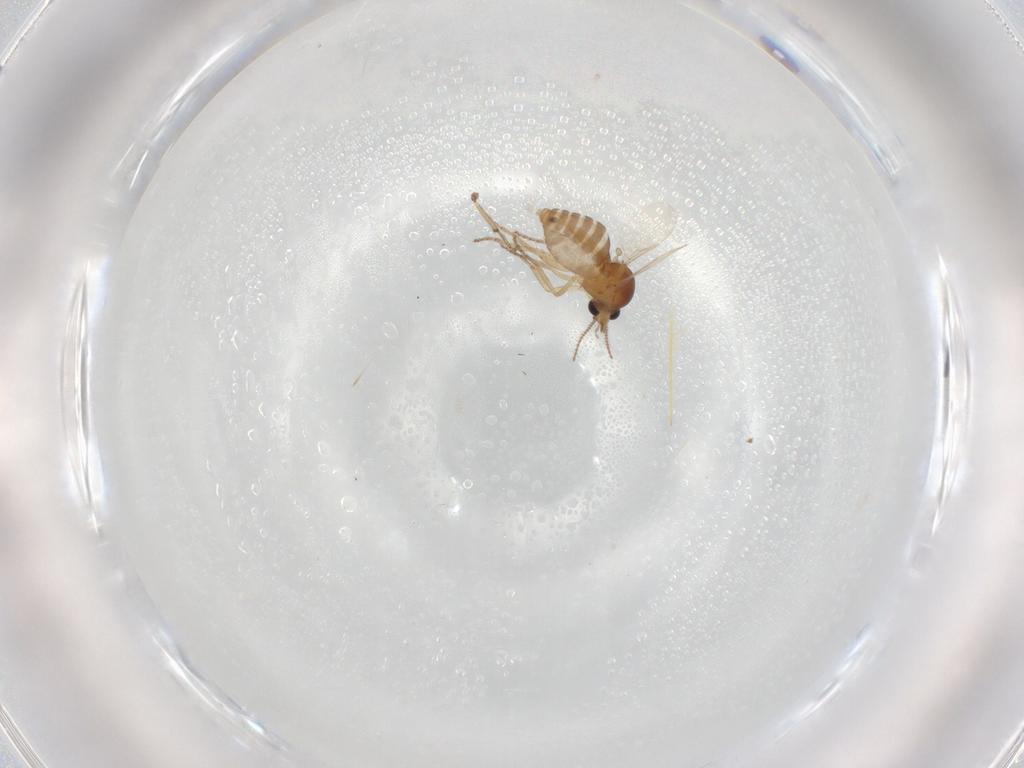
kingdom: Animalia
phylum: Arthropoda
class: Insecta
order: Diptera
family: Ceratopogonidae
